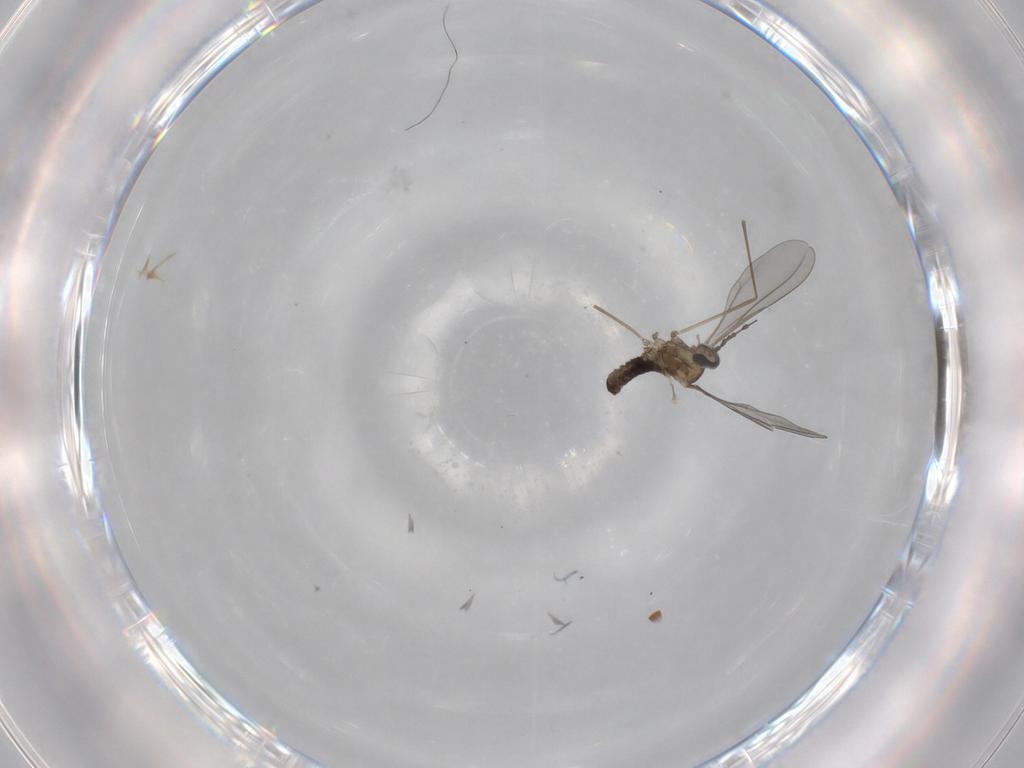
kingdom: Animalia
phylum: Arthropoda
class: Insecta
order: Diptera
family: Cecidomyiidae
